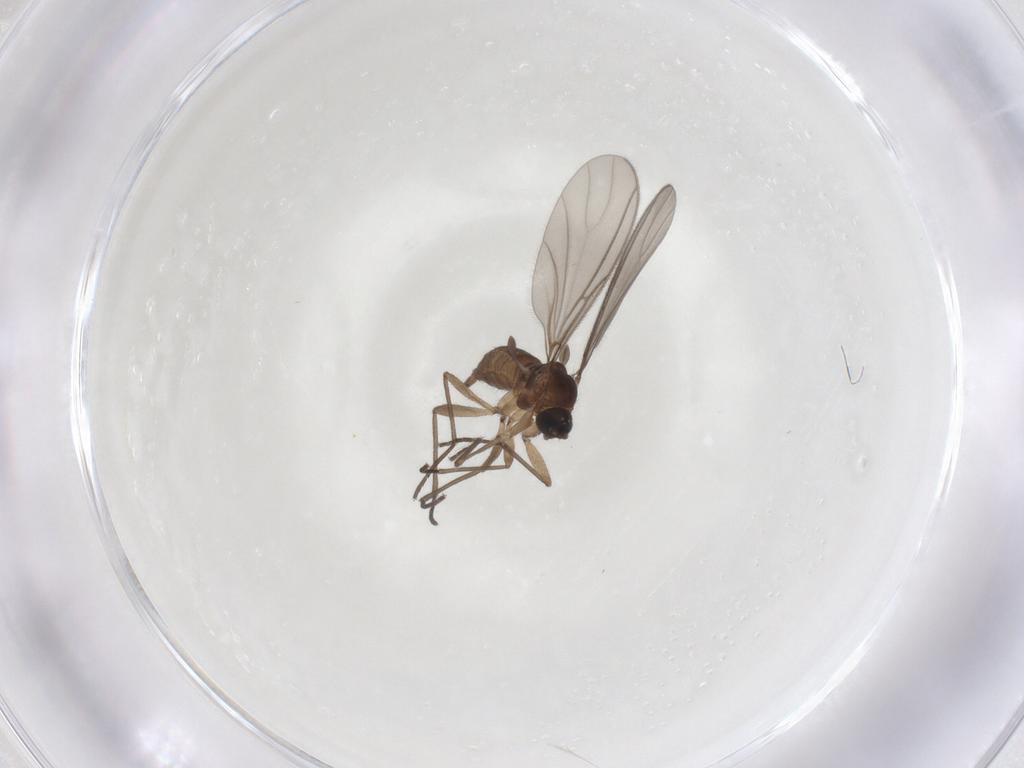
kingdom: Animalia
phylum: Arthropoda
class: Insecta
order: Diptera
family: Sciaridae
